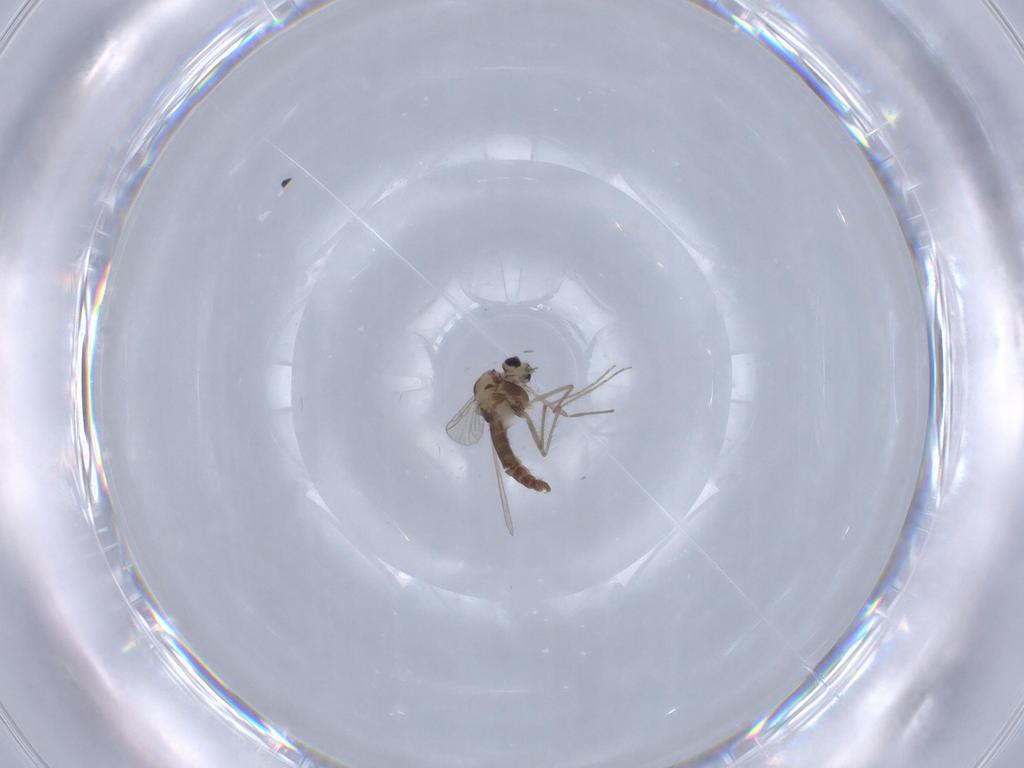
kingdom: Animalia
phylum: Arthropoda
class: Insecta
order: Diptera
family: Chironomidae
